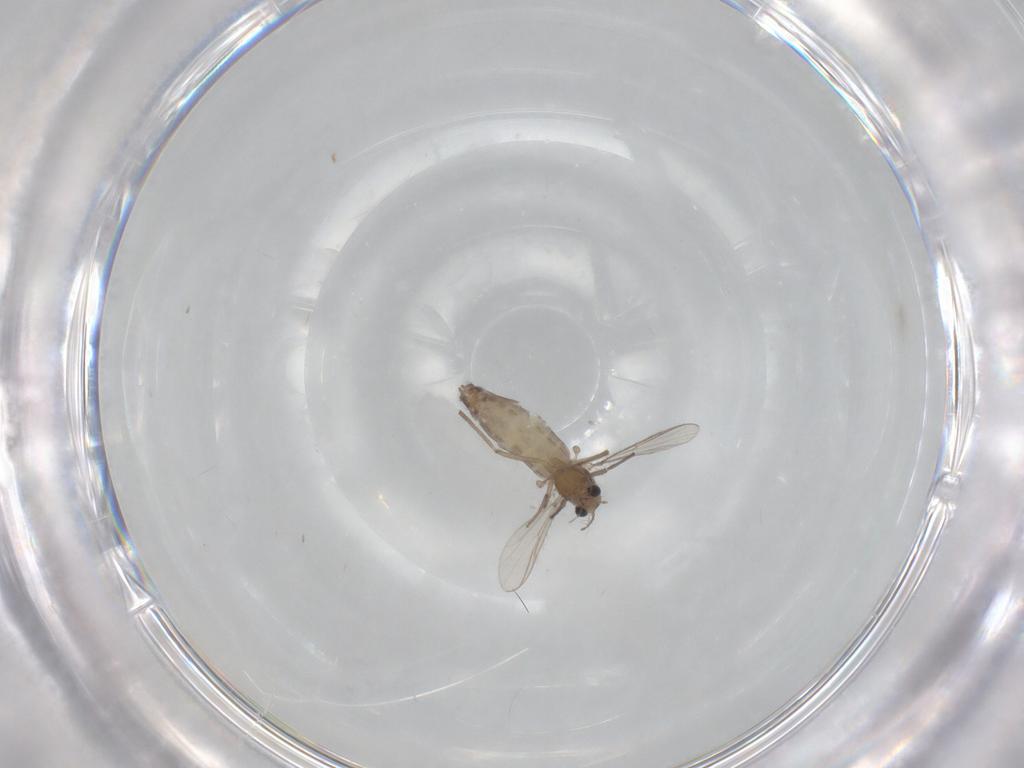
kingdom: Animalia
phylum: Arthropoda
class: Insecta
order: Diptera
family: Chironomidae
